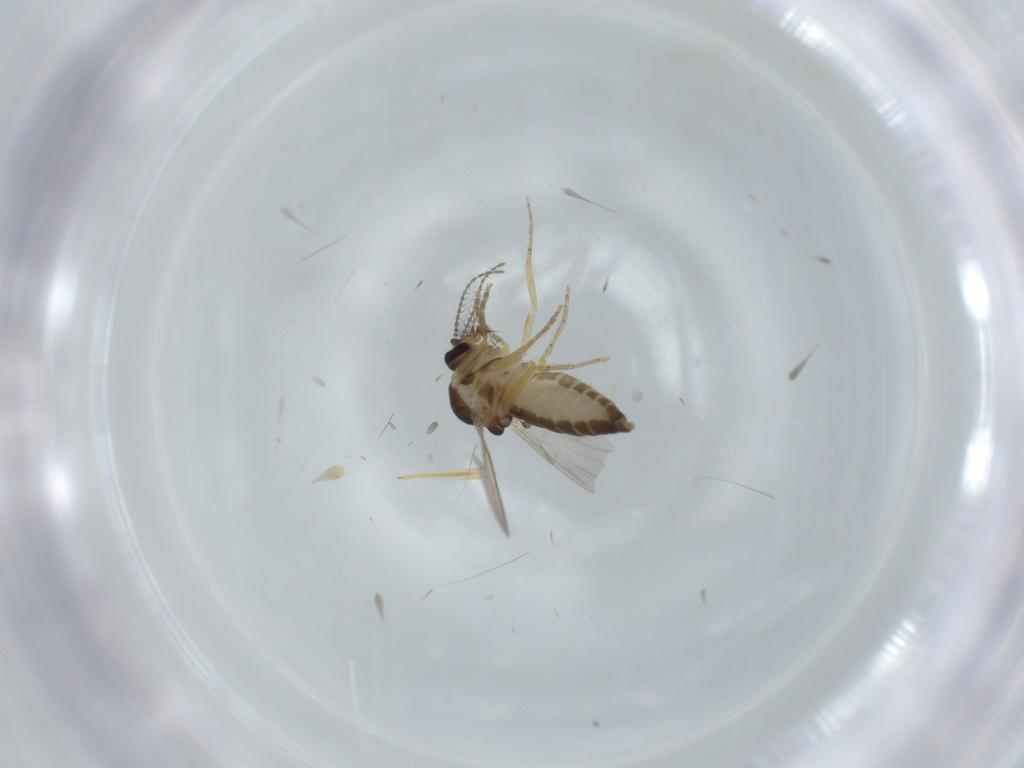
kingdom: Animalia
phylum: Arthropoda
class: Insecta
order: Diptera
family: Ceratopogonidae
